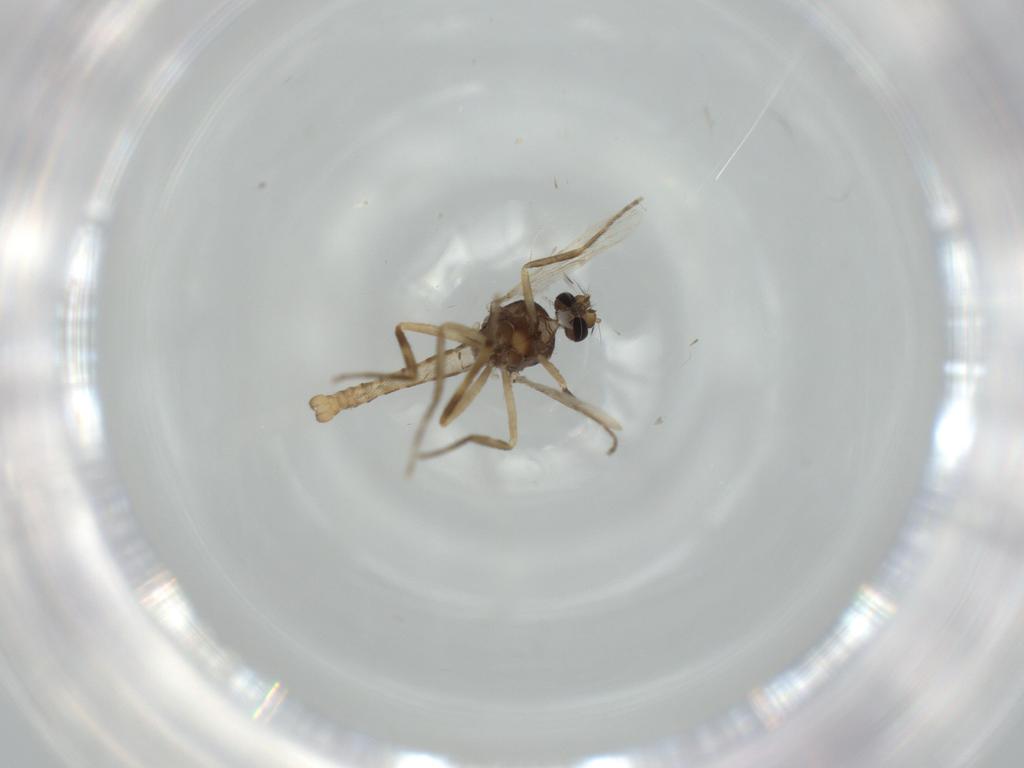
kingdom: Animalia
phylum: Arthropoda
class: Insecta
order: Diptera
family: Ceratopogonidae
